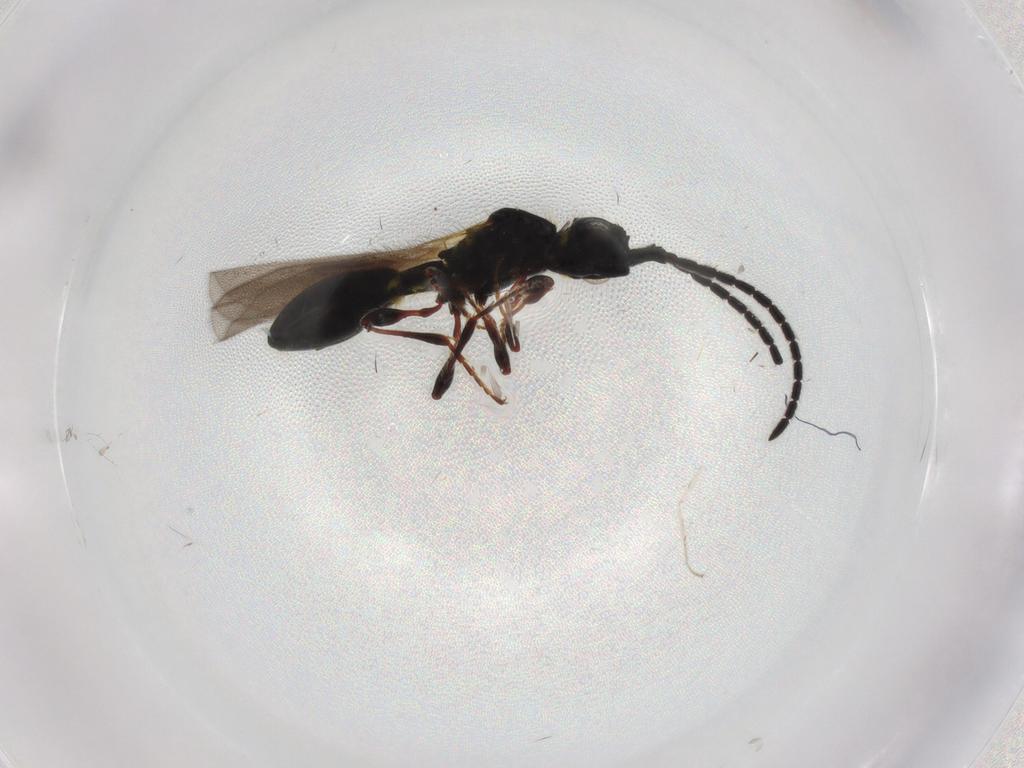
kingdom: Animalia
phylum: Arthropoda
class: Insecta
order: Hymenoptera
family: Diapriidae
